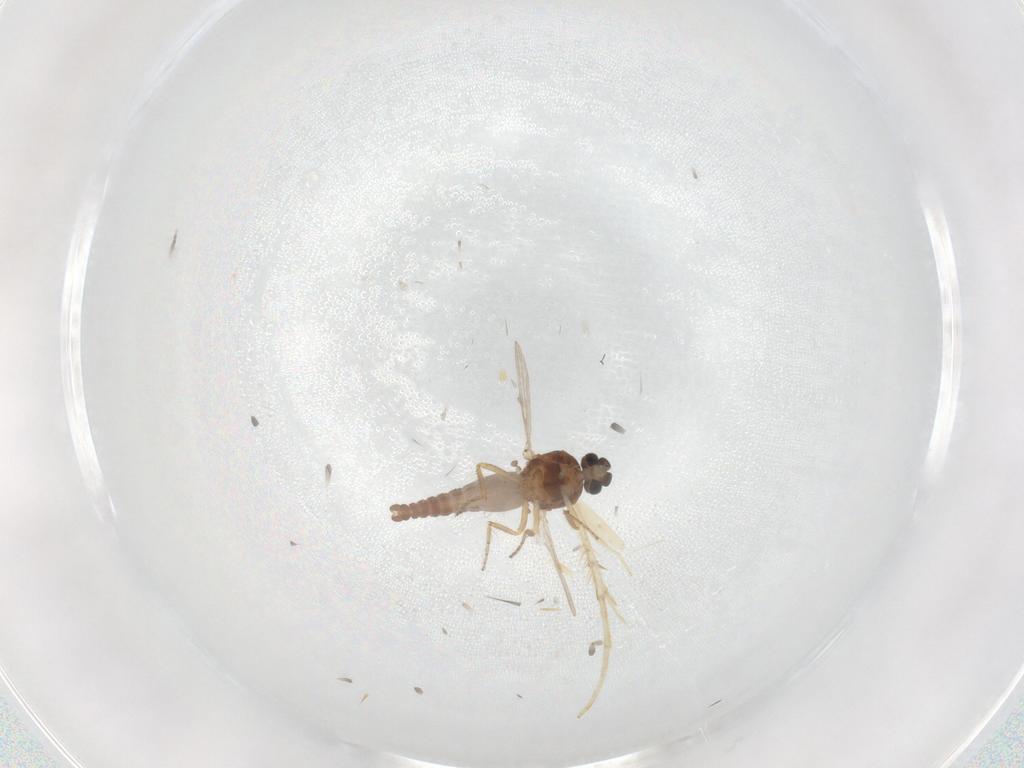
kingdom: Animalia
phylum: Arthropoda
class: Insecta
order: Diptera
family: Ceratopogonidae
